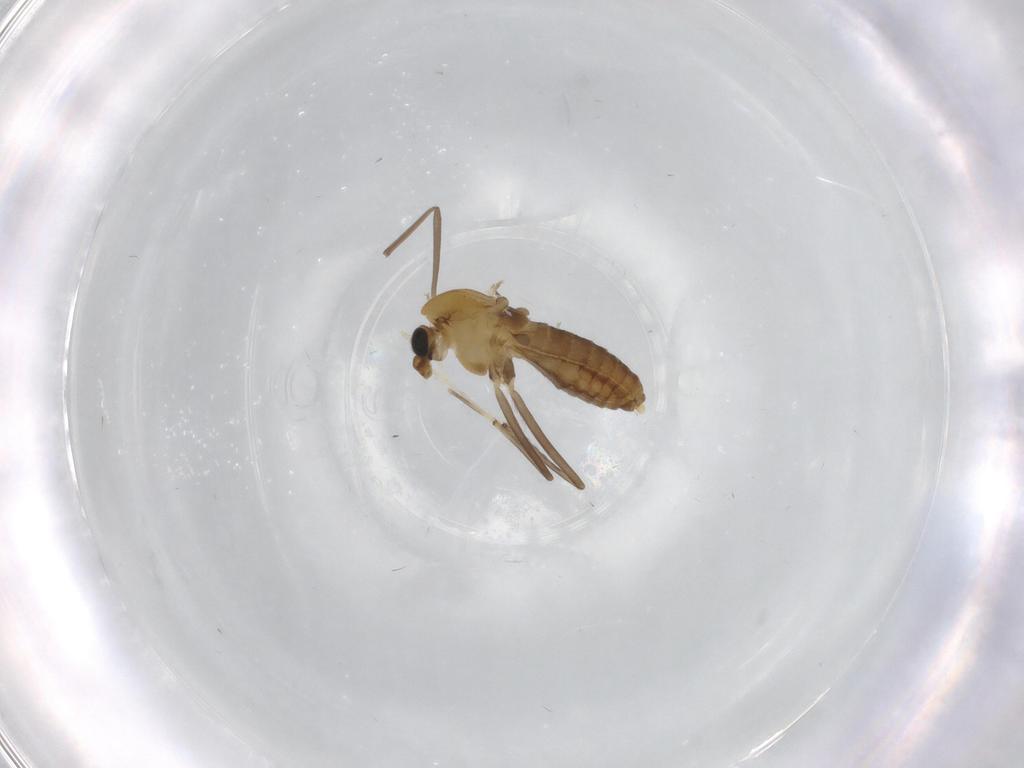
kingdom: Animalia
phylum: Arthropoda
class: Insecta
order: Diptera
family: Chironomidae
